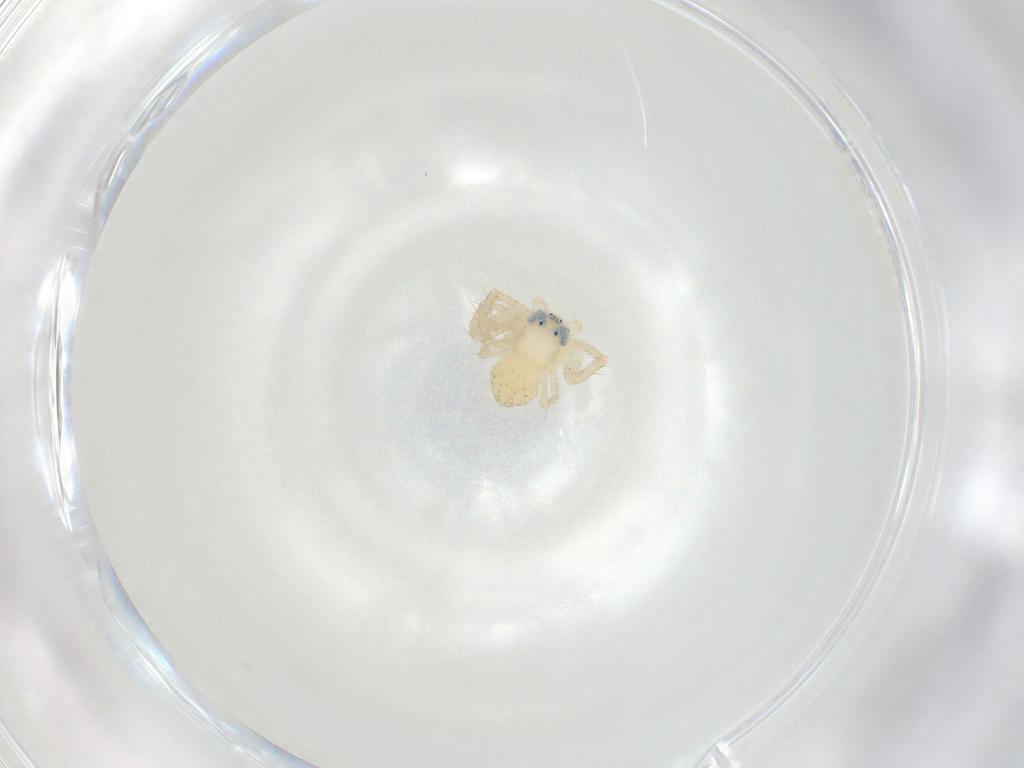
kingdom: Animalia
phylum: Arthropoda
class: Arachnida
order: Araneae
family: Thomisidae
